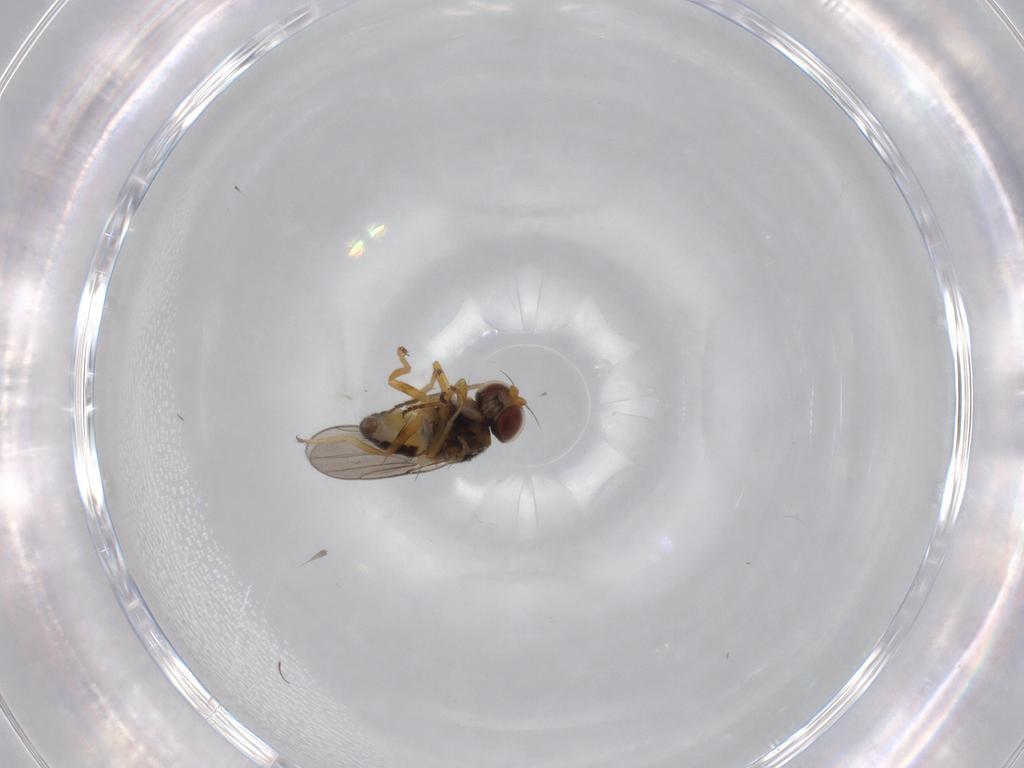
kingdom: Animalia
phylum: Arthropoda
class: Insecta
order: Diptera
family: Chloropidae
